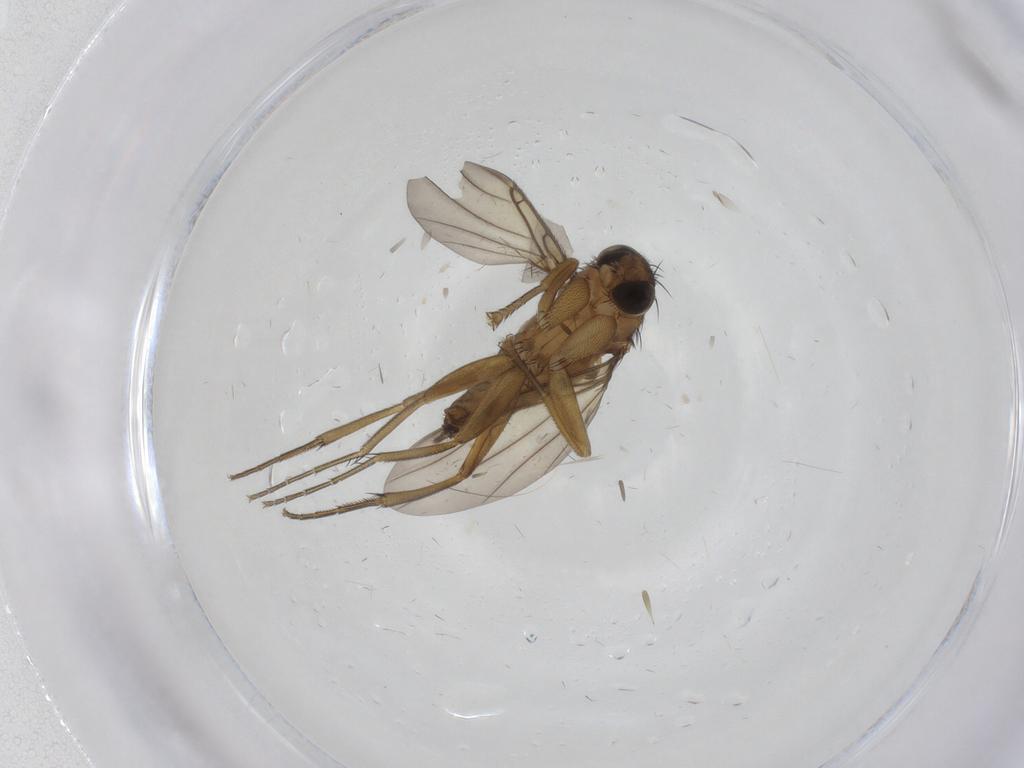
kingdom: Animalia
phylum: Arthropoda
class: Insecta
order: Diptera
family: Phoridae
